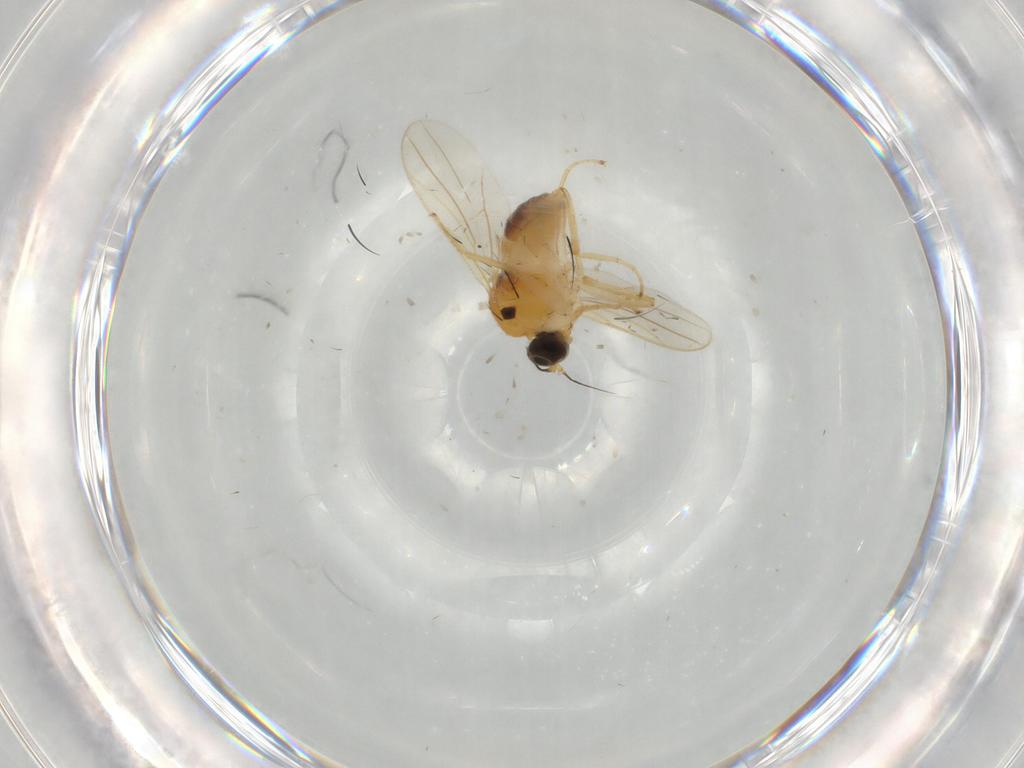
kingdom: Animalia
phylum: Arthropoda
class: Insecta
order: Diptera
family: Hybotidae
